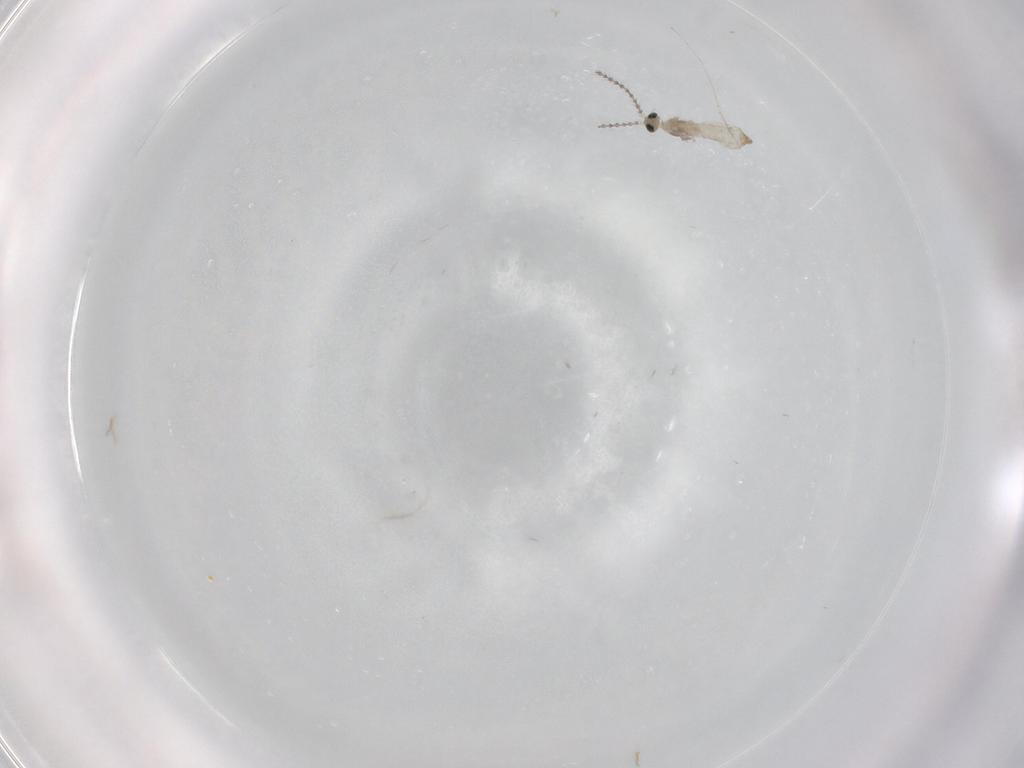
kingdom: Animalia
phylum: Arthropoda
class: Insecta
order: Diptera
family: Cecidomyiidae
